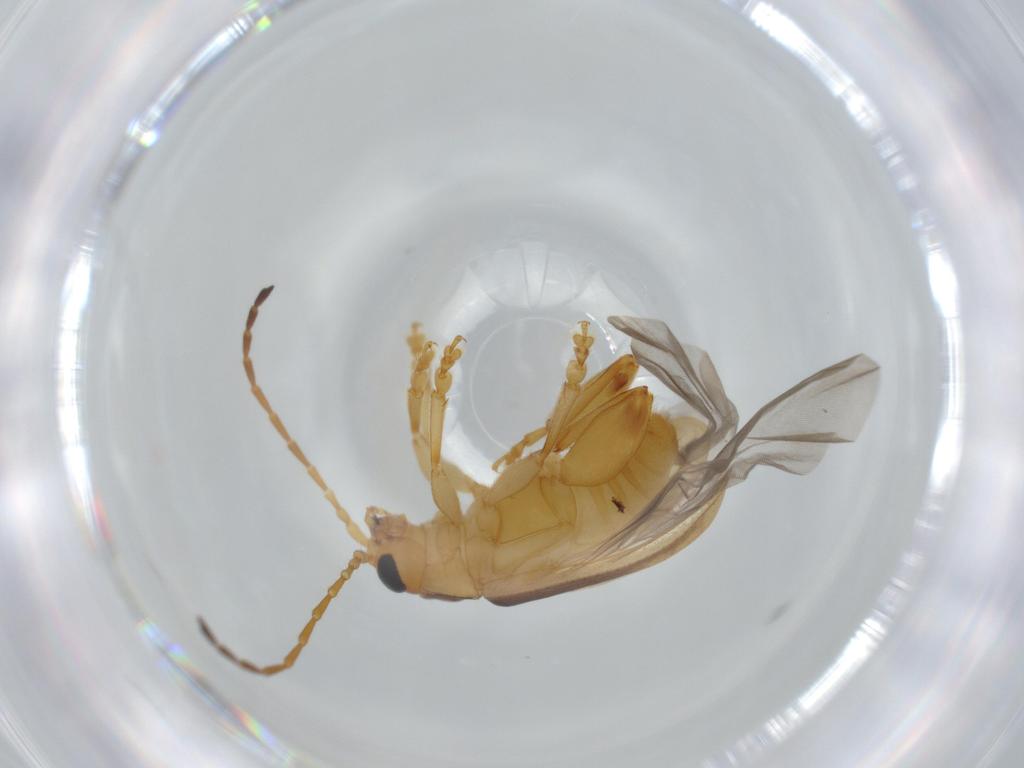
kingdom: Animalia
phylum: Arthropoda
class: Insecta
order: Coleoptera
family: Chrysomelidae
